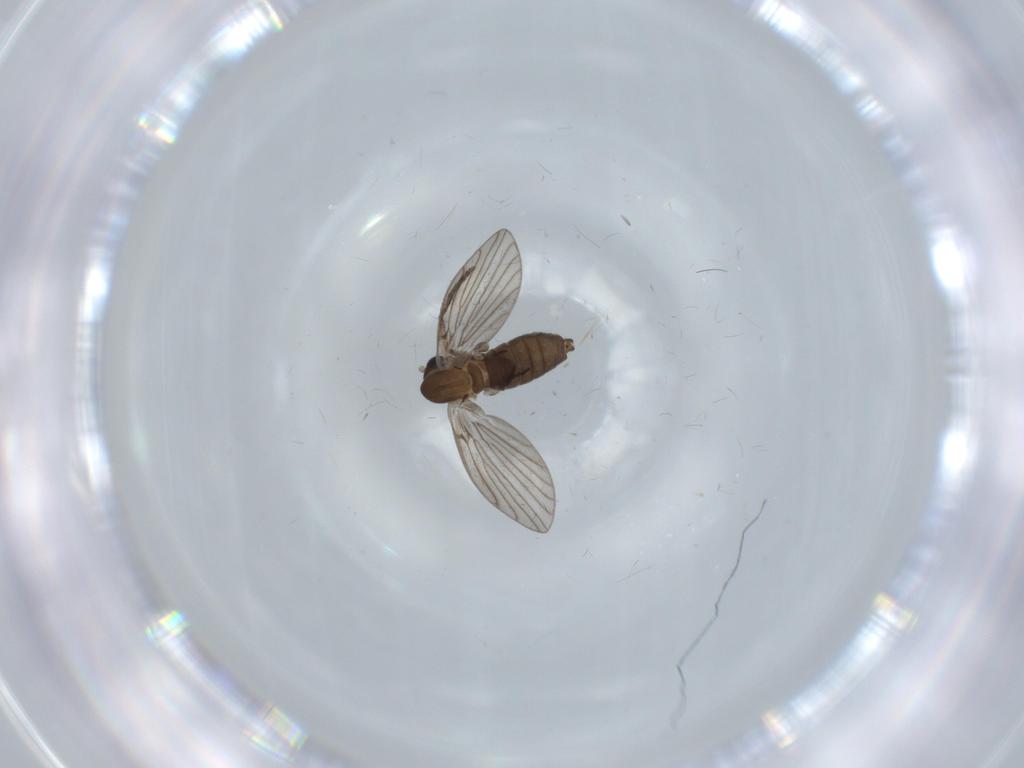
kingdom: Animalia
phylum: Arthropoda
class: Insecta
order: Diptera
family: Psychodidae
